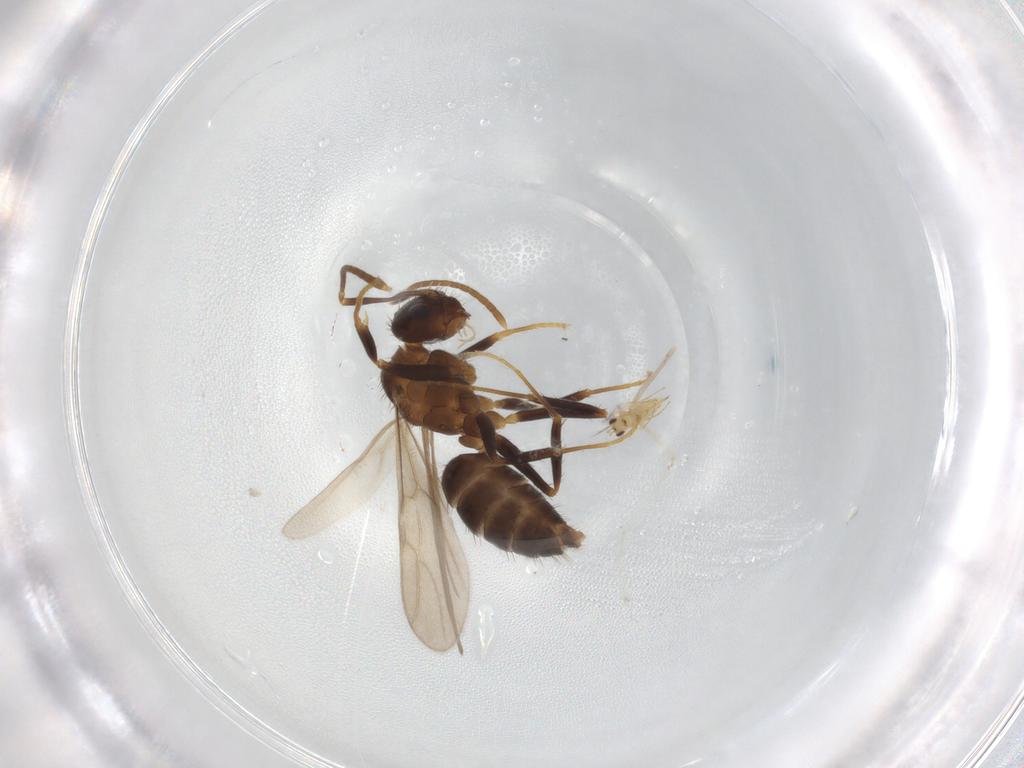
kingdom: Animalia
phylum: Arthropoda
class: Insecta
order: Hymenoptera
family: Formicidae
